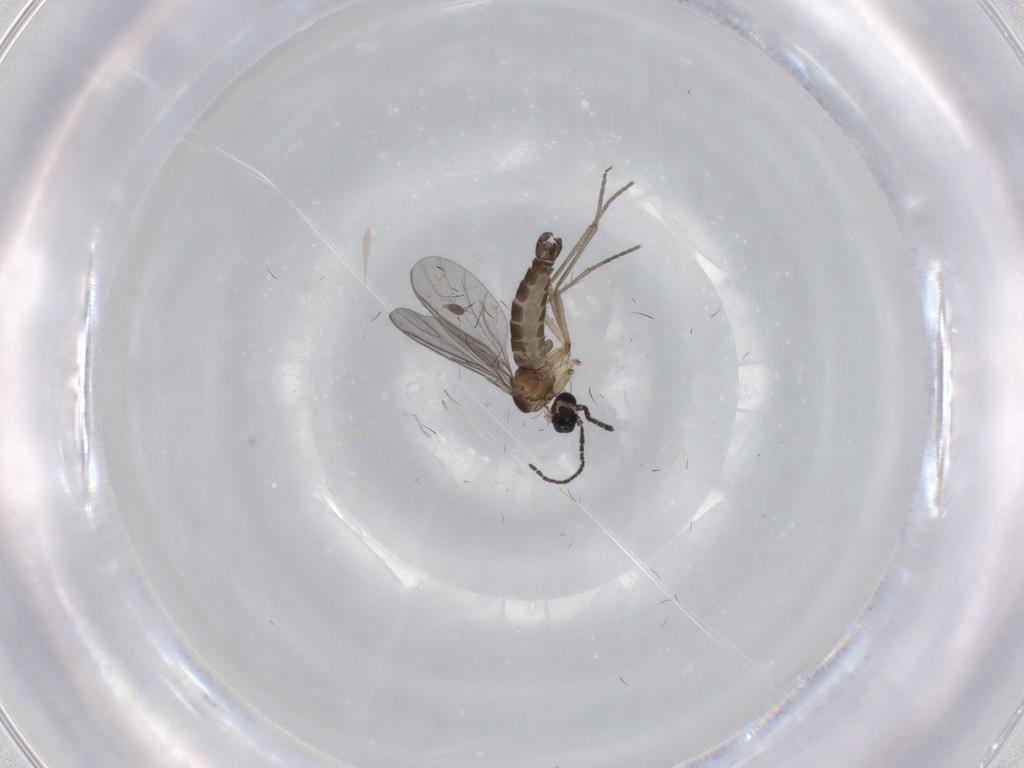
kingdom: Animalia
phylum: Arthropoda
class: Insecta
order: Diptera
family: Sciaridae
